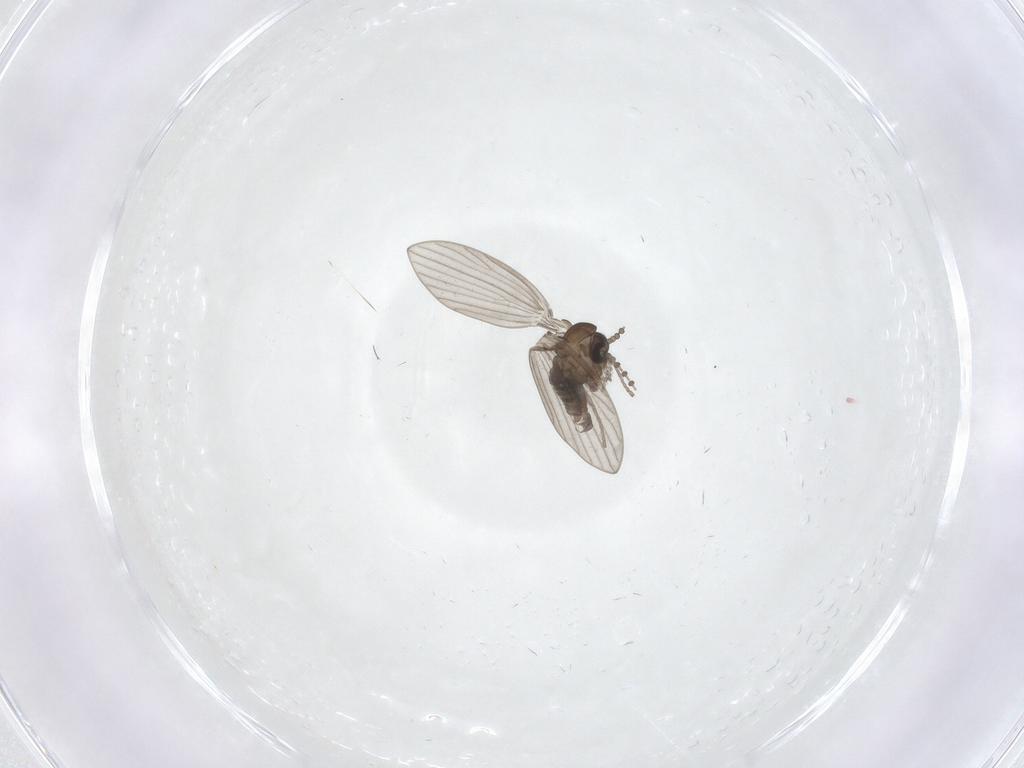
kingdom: Animalia
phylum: Arthropoda
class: Insecta
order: Diptera
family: Psychodidae
